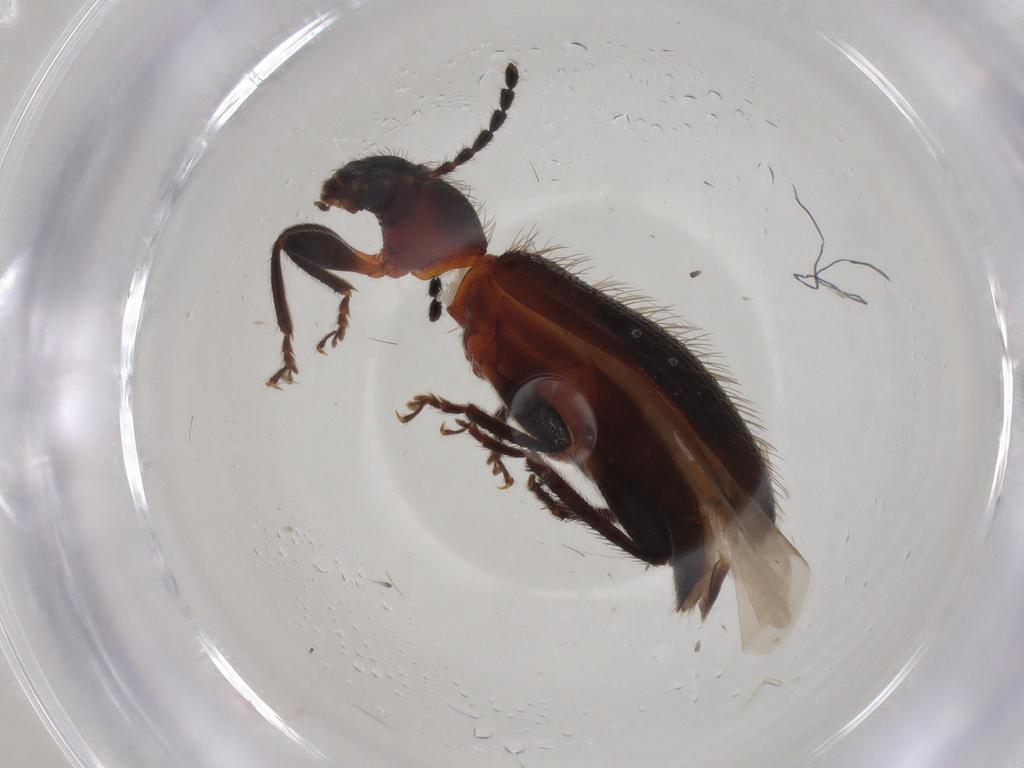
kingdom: Animalia
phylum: Arthropoda
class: Insecta
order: Coleoptera
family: Tenebrionidae
